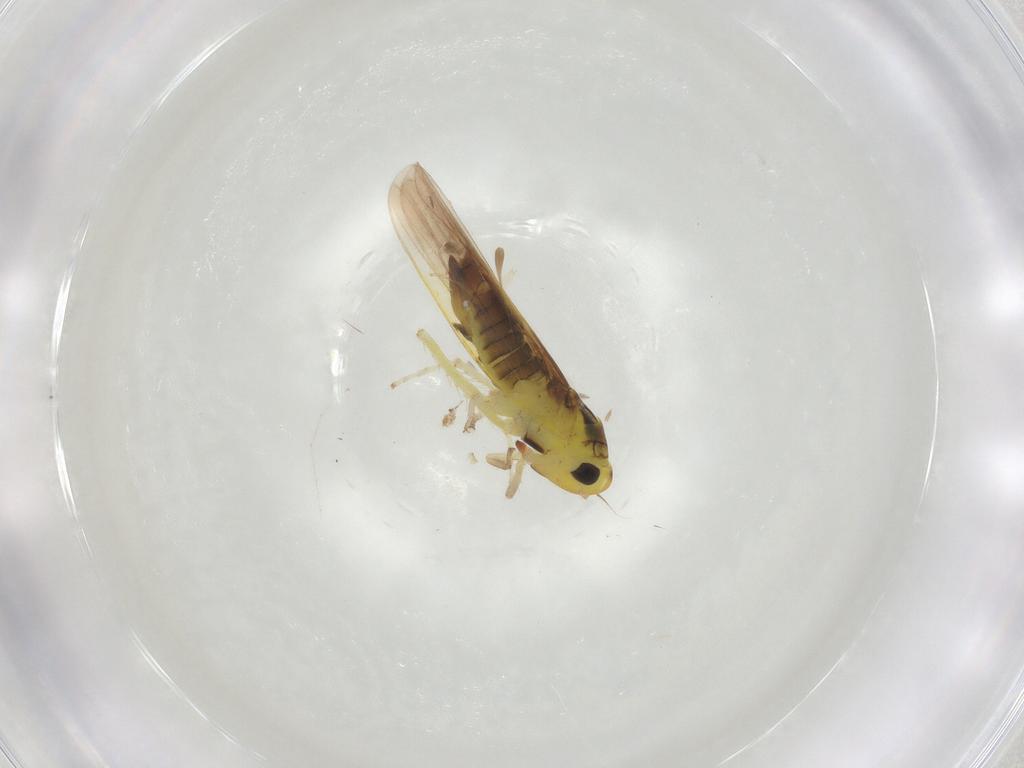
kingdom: Animalia
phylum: Arthropoda
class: Insecta
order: Hemiptera
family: Cicadellidae
